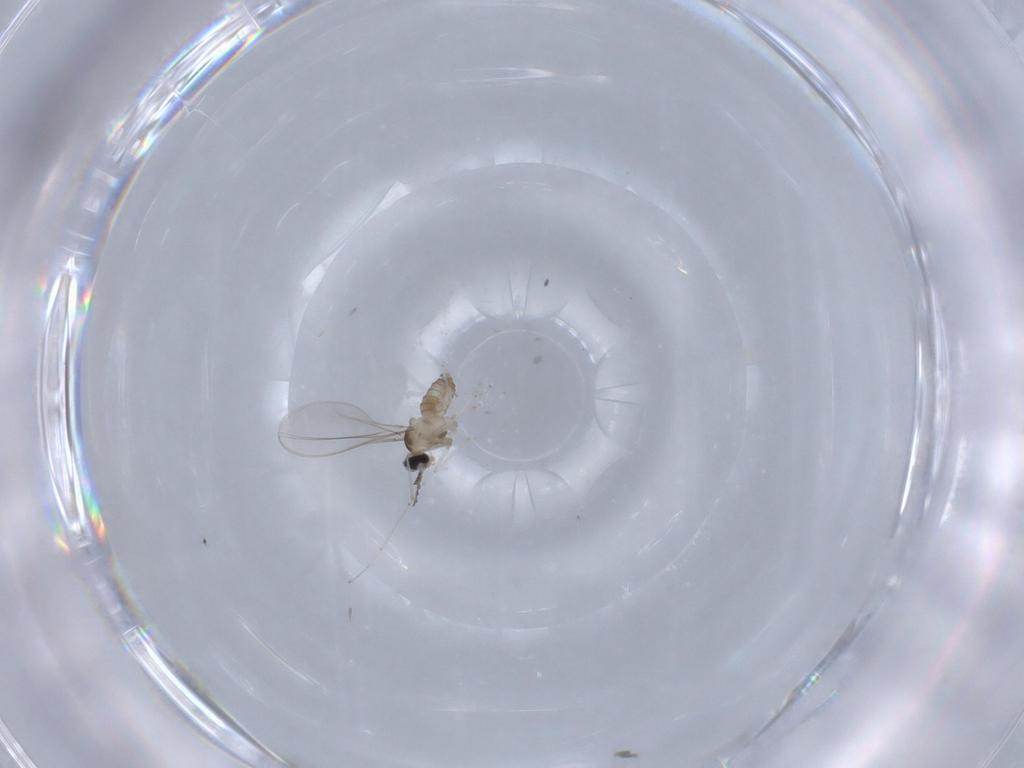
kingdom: Animalia
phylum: Arthropoda
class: Insecta
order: Diptera
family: Cecidomyiidae
